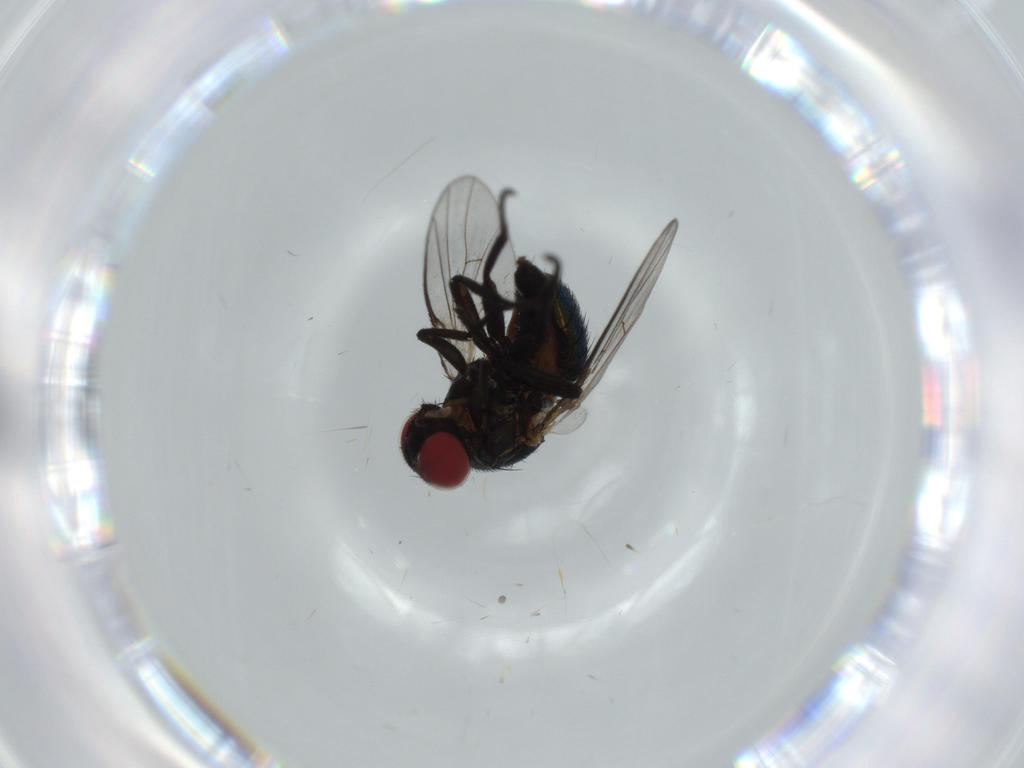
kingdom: Animalia
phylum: Arthropoda
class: Insecta
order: Diptera
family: Agromyzidae
